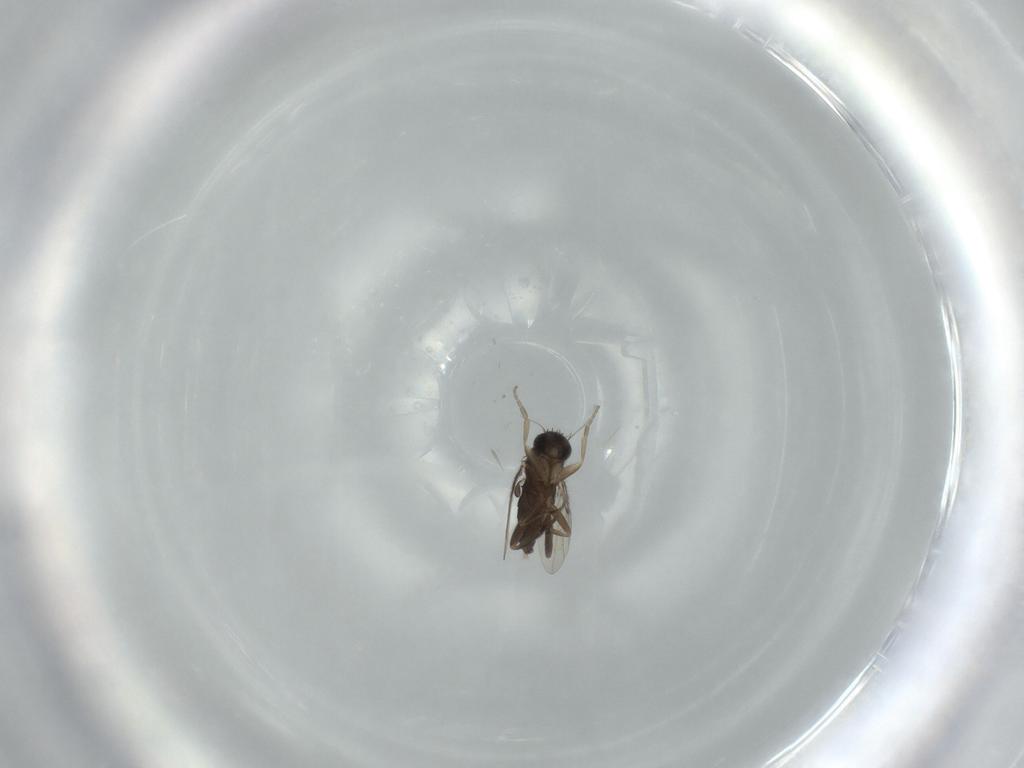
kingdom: Animalia
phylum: Arthropoda
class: Insecta
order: Diptera
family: Phoridae
